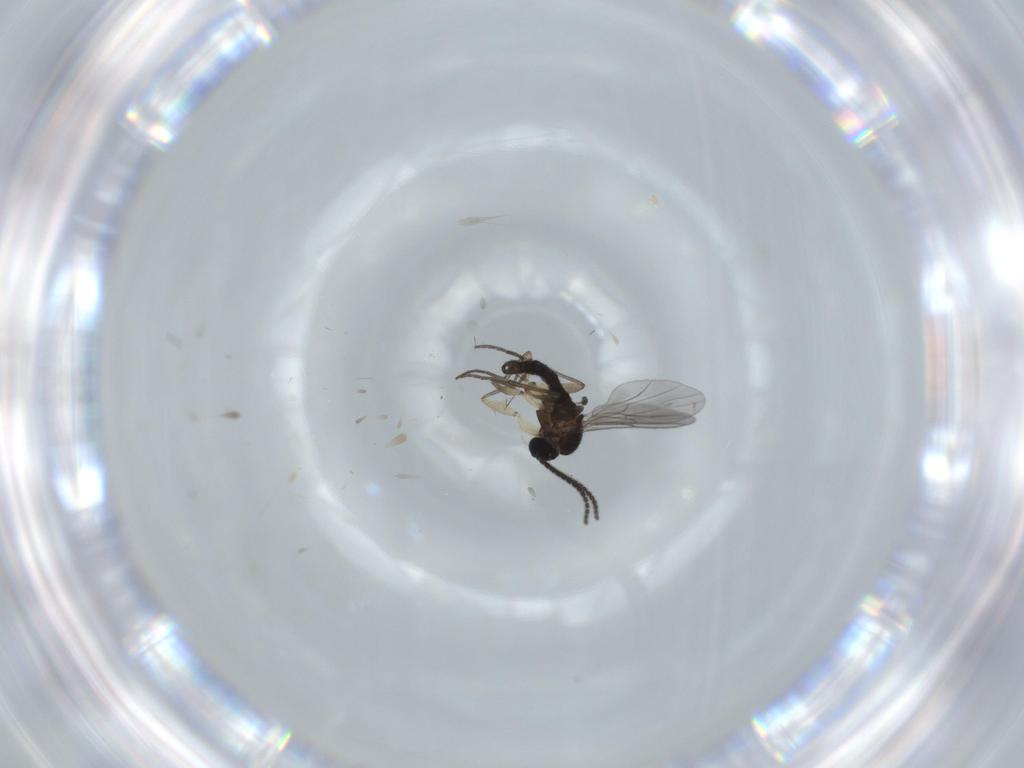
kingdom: Animalia
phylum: Arthropoda
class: Insecta
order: Diptera
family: Sciaridae
